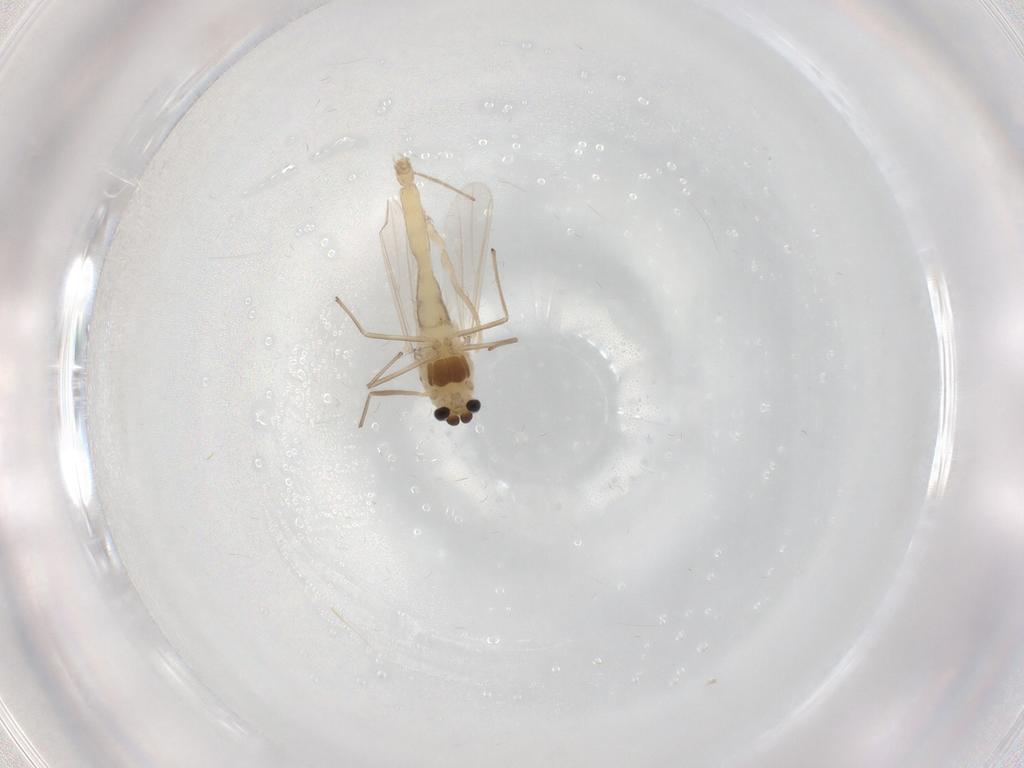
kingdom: Animalia
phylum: Arthropoda
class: Insecta
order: Diptera
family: Chironomidae
